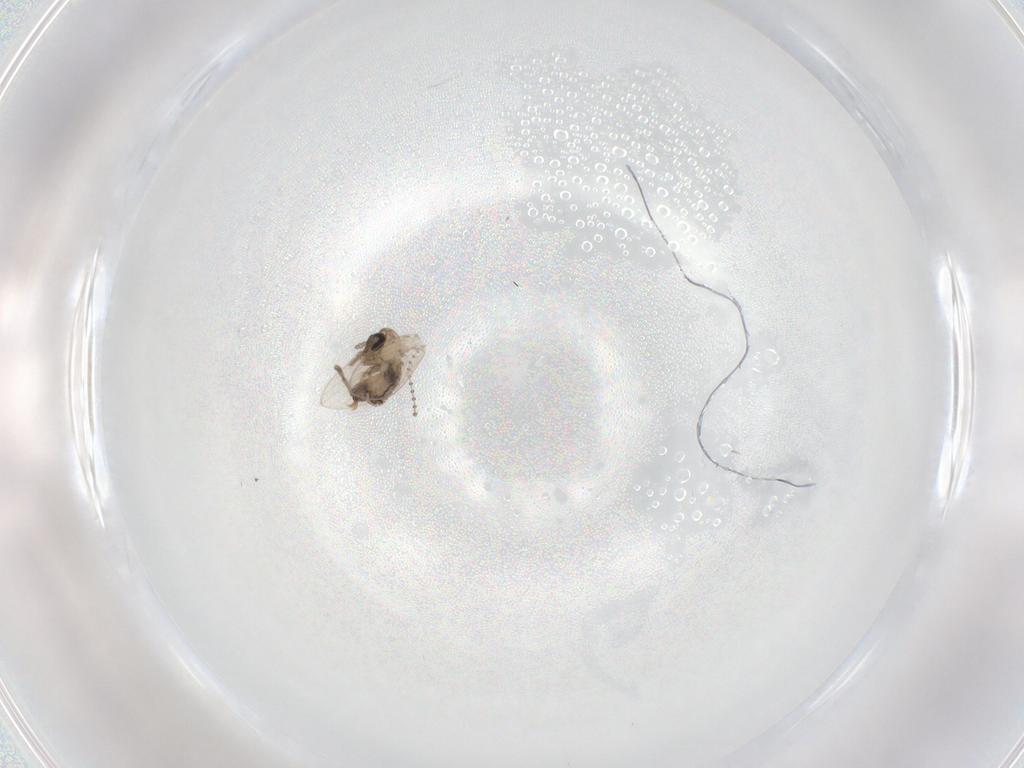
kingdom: Animalia
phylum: Arthropoda
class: Insecta
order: Diptera
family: Psychodidae
